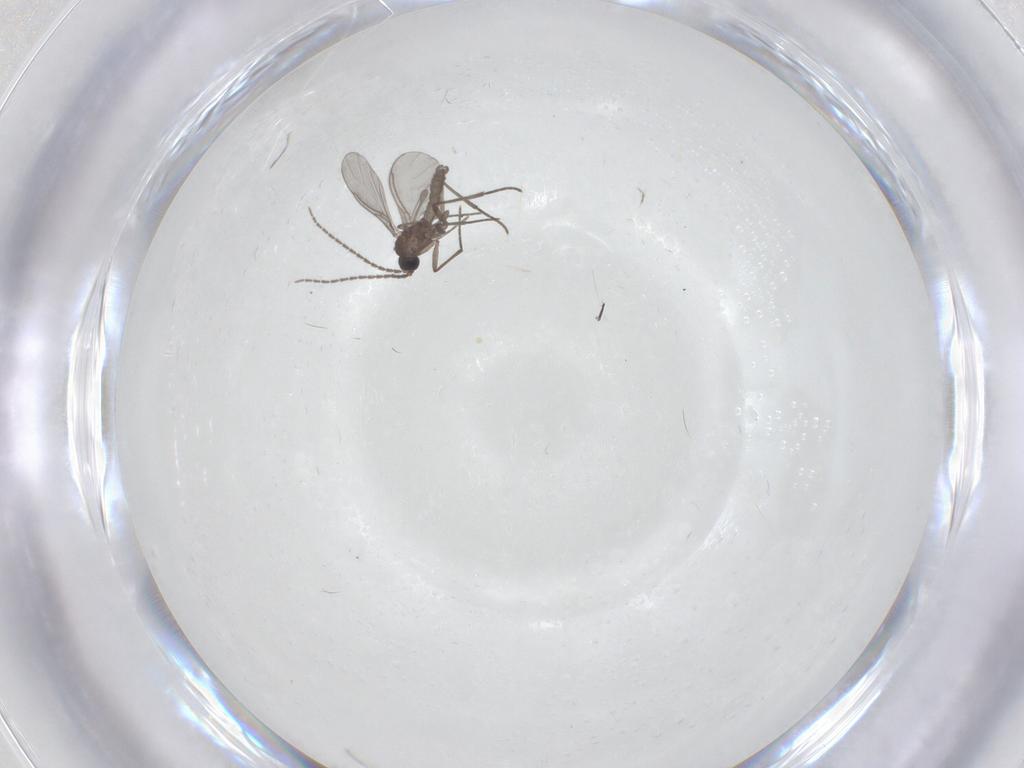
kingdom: Animalia
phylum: Arthropoda
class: Insecta
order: Diptera
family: Sciaridae
